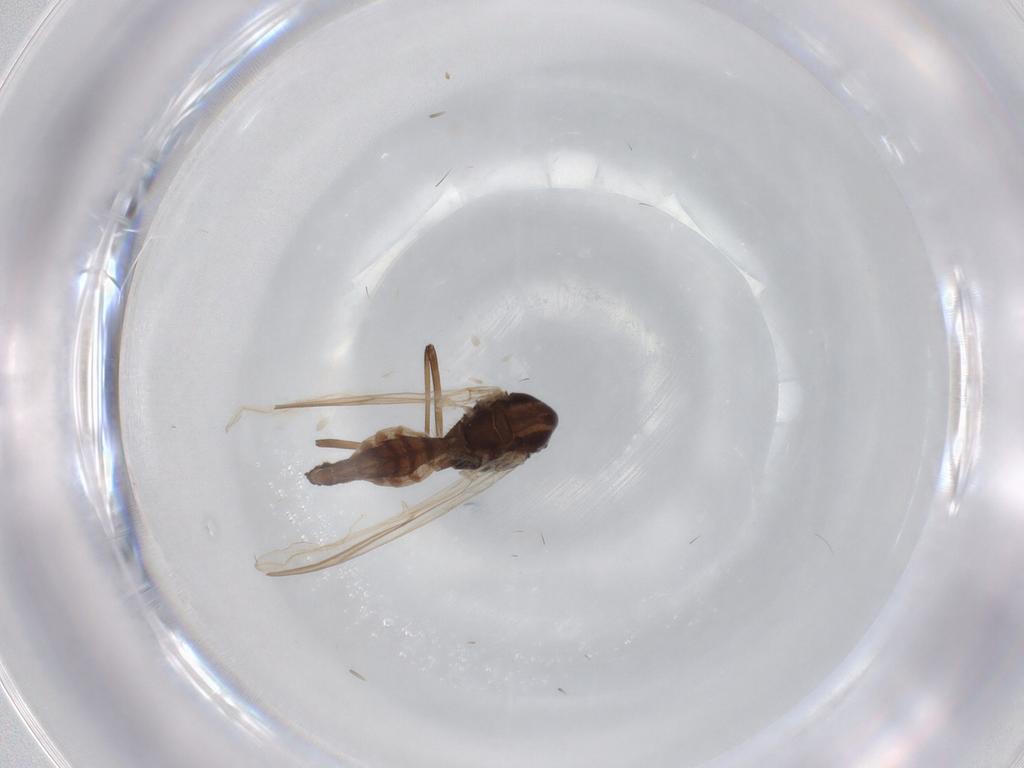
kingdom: Animalia
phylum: Arthropoda
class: Insecta
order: Diptera
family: Chironomidae
